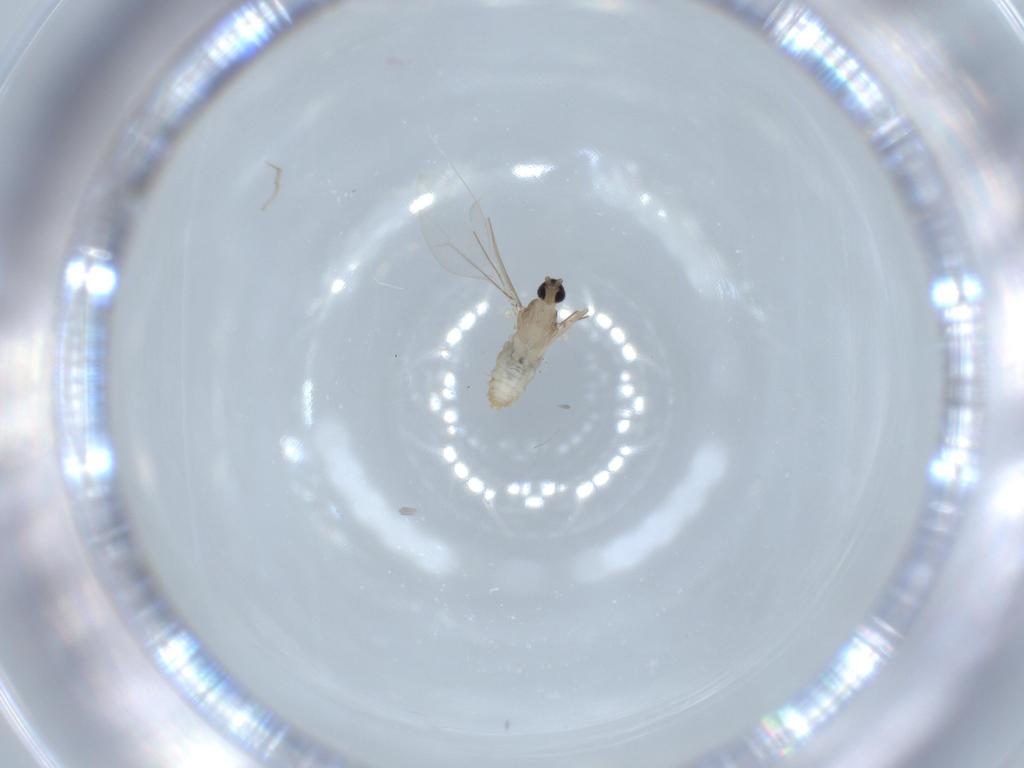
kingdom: Animalia
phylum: Arthropoda
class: Insecta
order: Diptera
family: Cecidomyiidae
